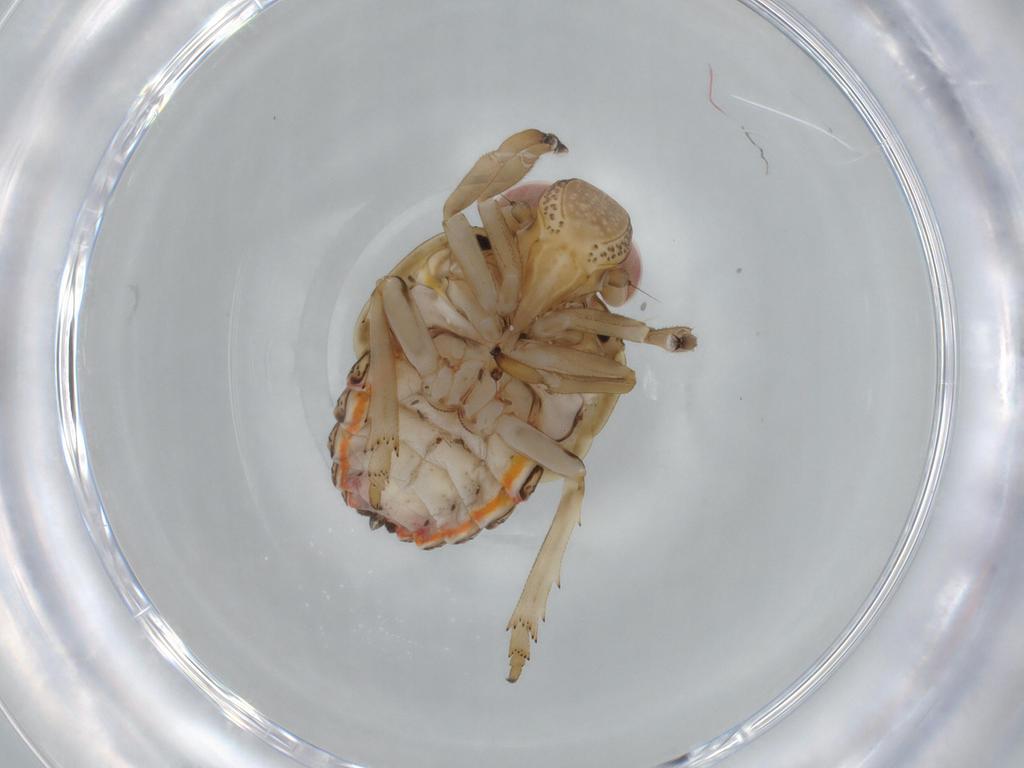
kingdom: Animalia
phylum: Arthropoda
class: Insecta
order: Hemiptera
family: Issidae
